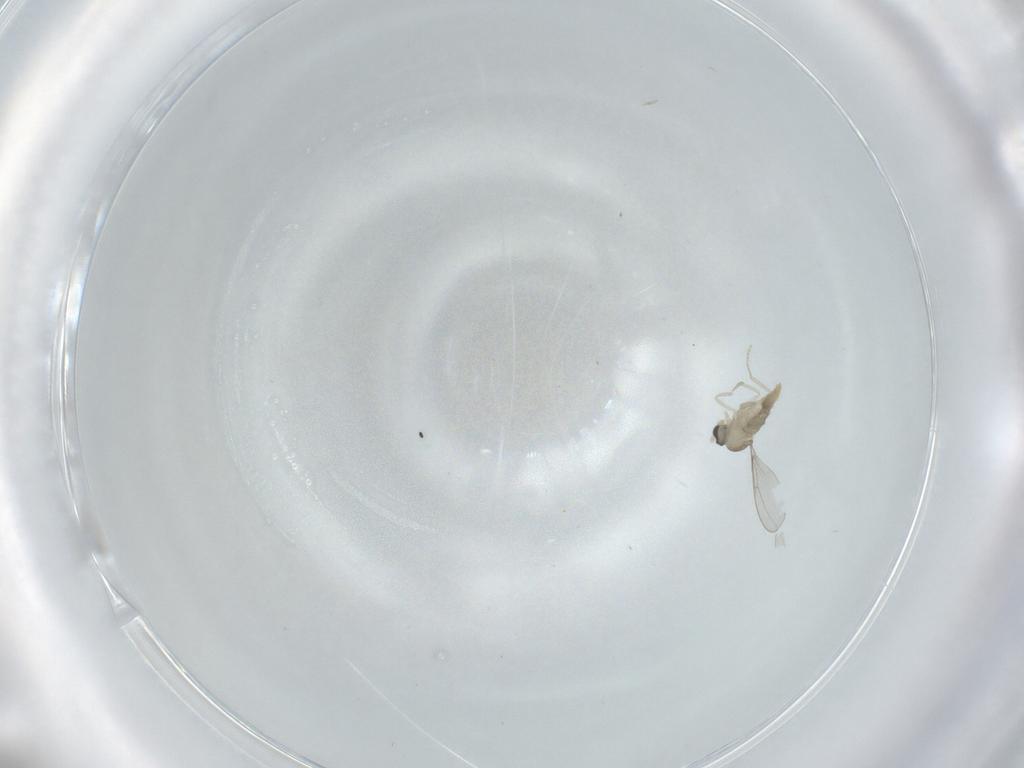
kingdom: Animalia
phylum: Arthropoda
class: Insecta
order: Diptera
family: Cecidomyiidae
